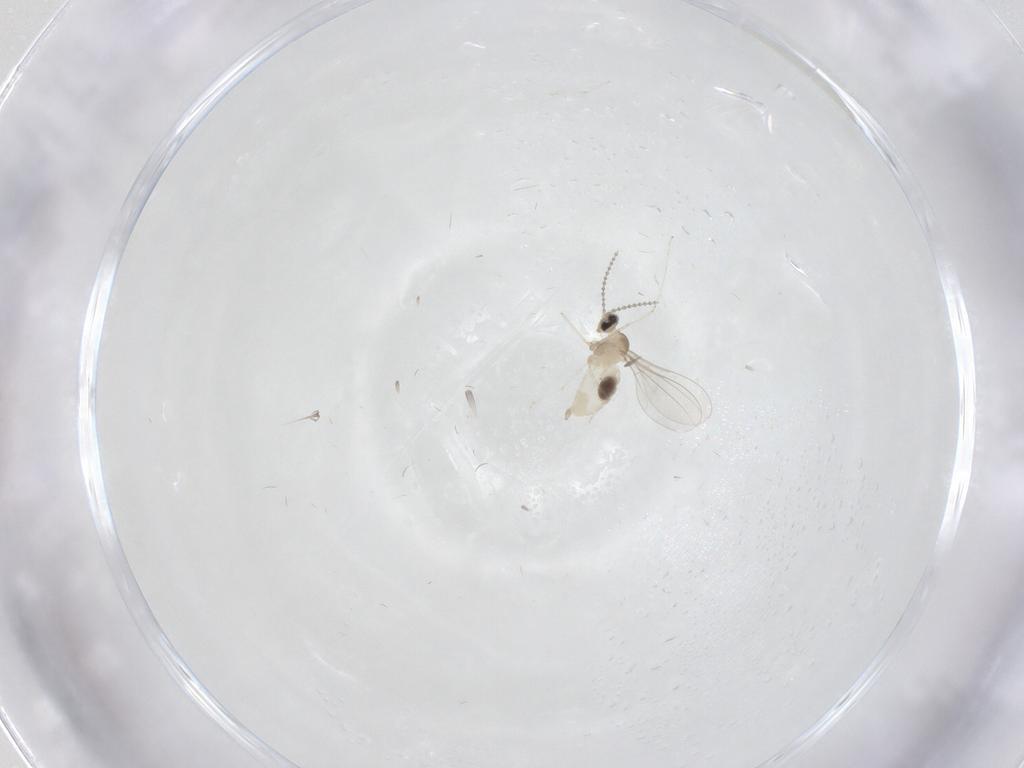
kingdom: Animalia
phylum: Arthropoda
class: Insecta
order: Diptera
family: Cecidomyiidae
